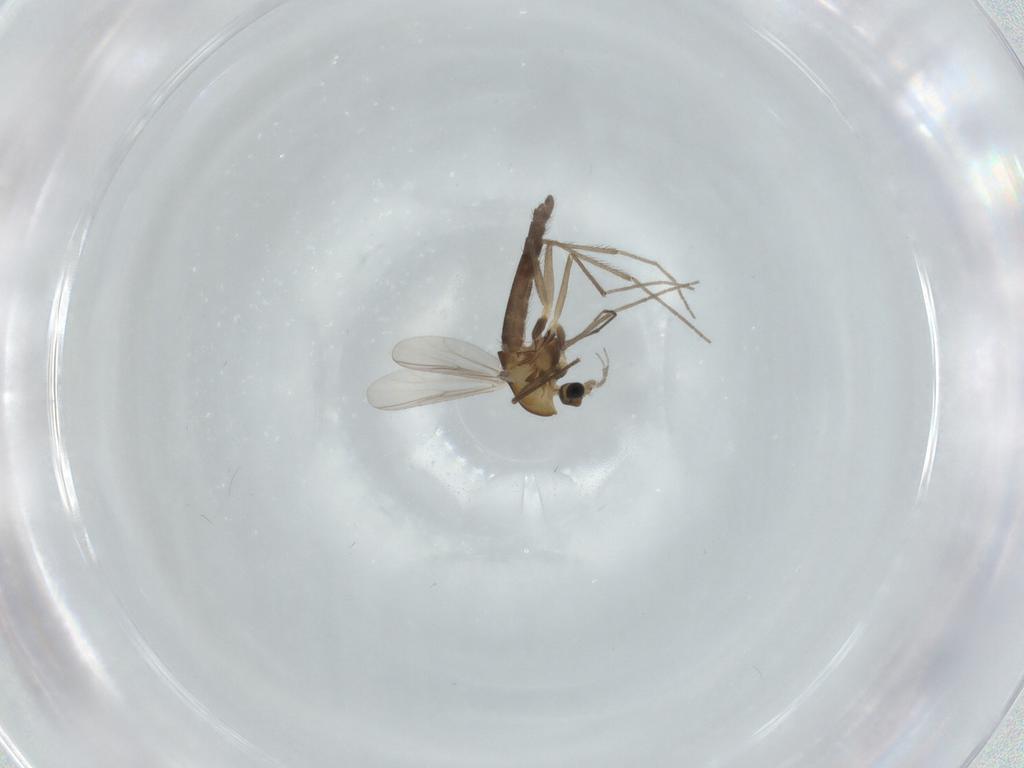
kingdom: Animalia
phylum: Arthropoda
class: Insecta
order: Diptera
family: Chironomidae
